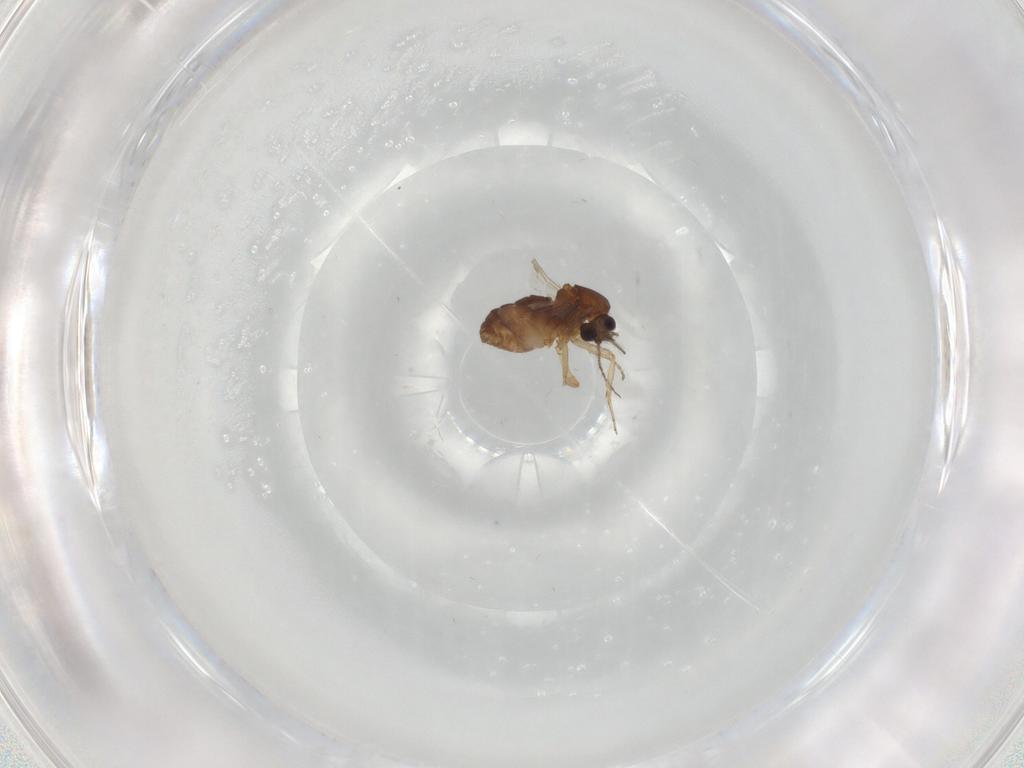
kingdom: Animalia
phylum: Arthropoda
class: Insecta
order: Diptera
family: Ceratopogonidae
